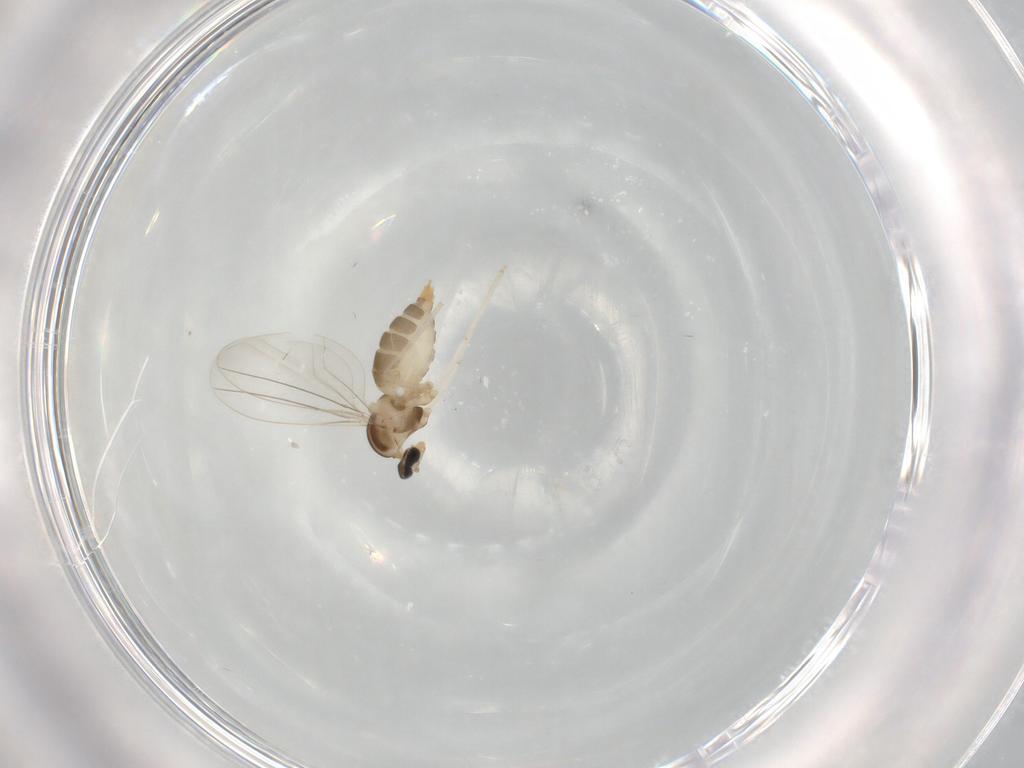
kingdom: Animalia
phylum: Arthropoda
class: Insecta
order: Diptera
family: Cecidomyiidae
